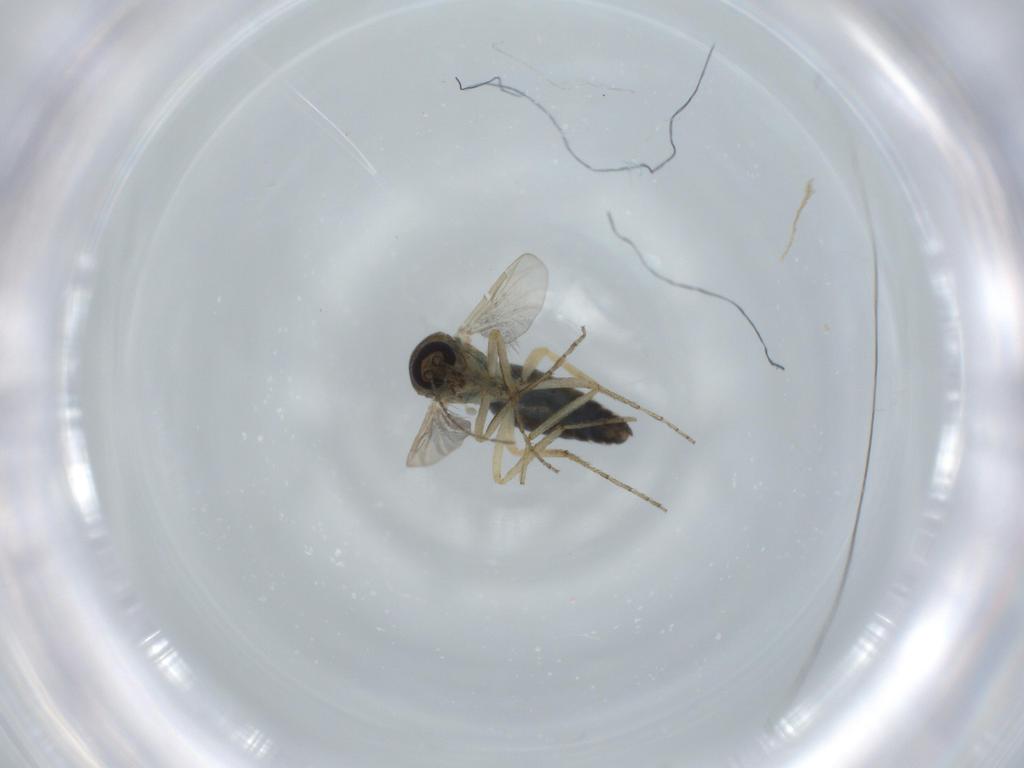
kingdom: Animalia
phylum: Arthropoda
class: Insecta
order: Diptera
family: Ceratopogonidae
